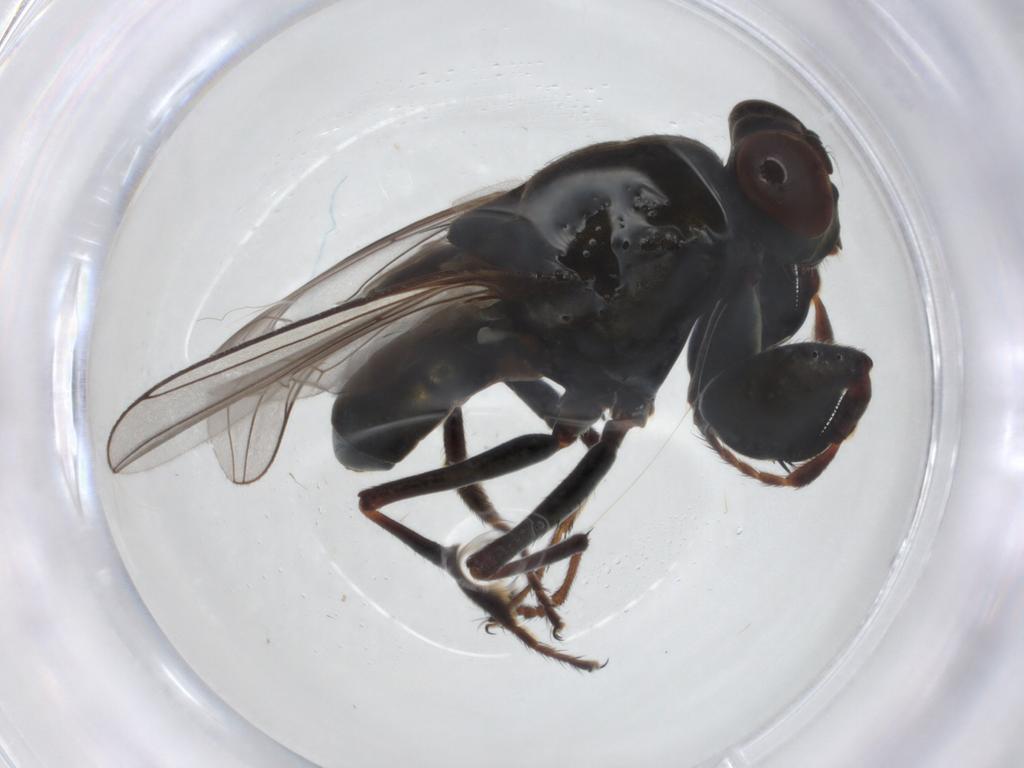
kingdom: Animalia
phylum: Arthropoda
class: Insecta
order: Diptera
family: Ephydridae
